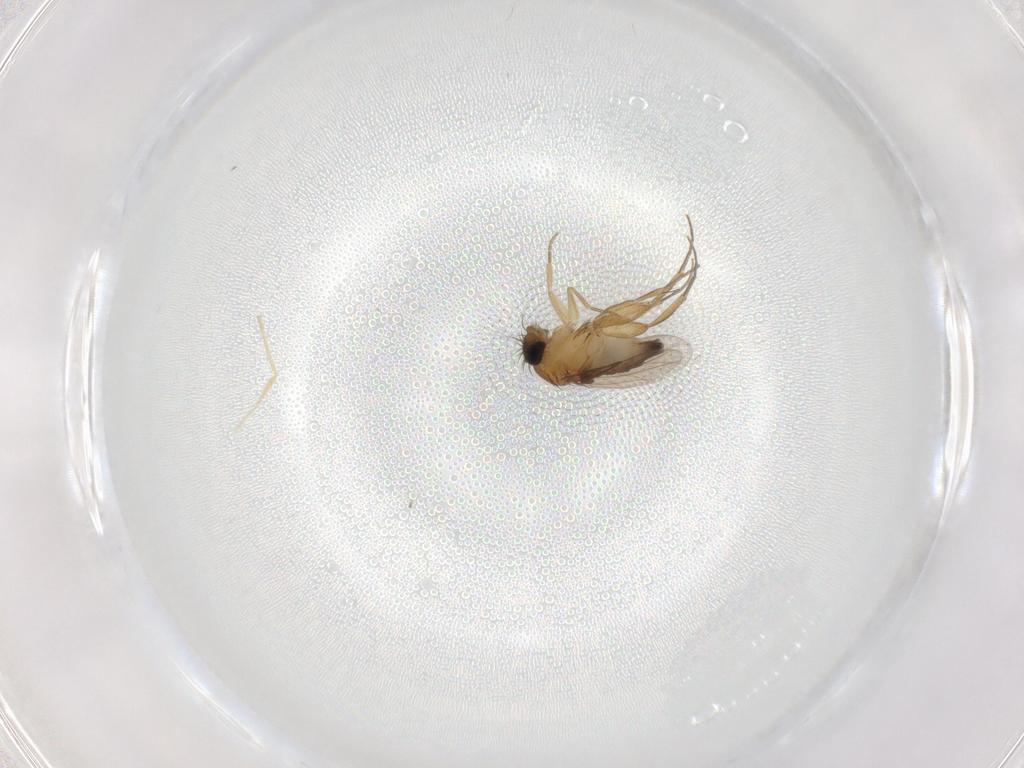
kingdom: Animalia
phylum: Arthropoda
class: Insecta
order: Diptera
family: Phoridae
